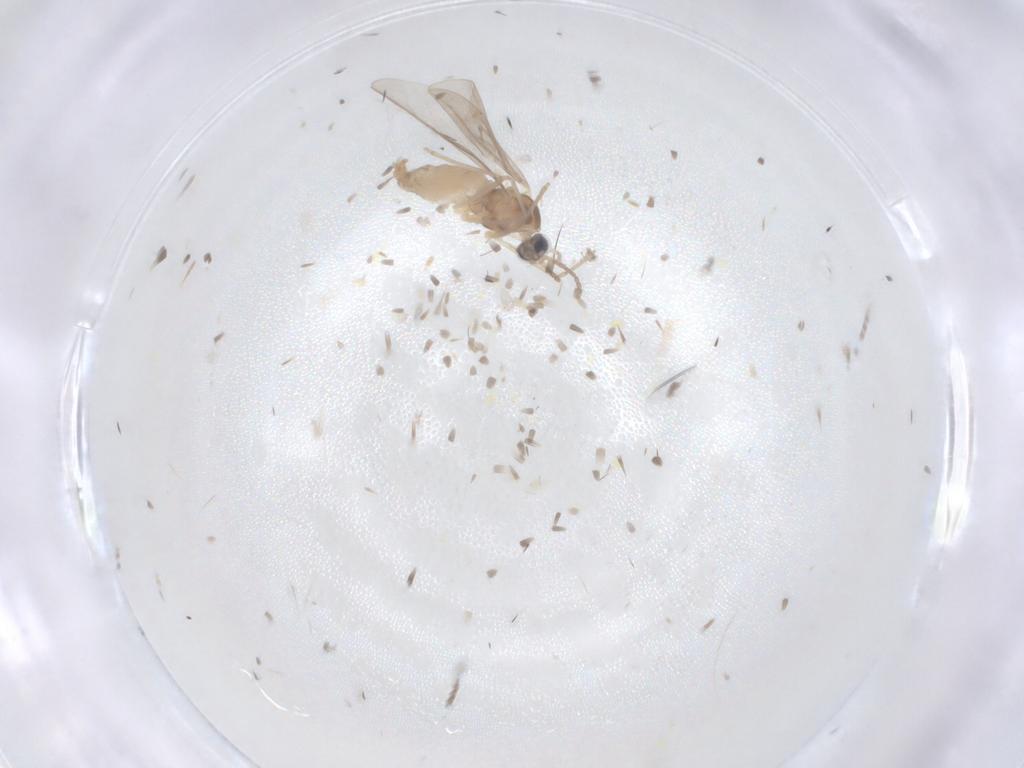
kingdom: Animalia
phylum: Arthropoda
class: Insecta
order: Diptera
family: Cecidomyiidae
